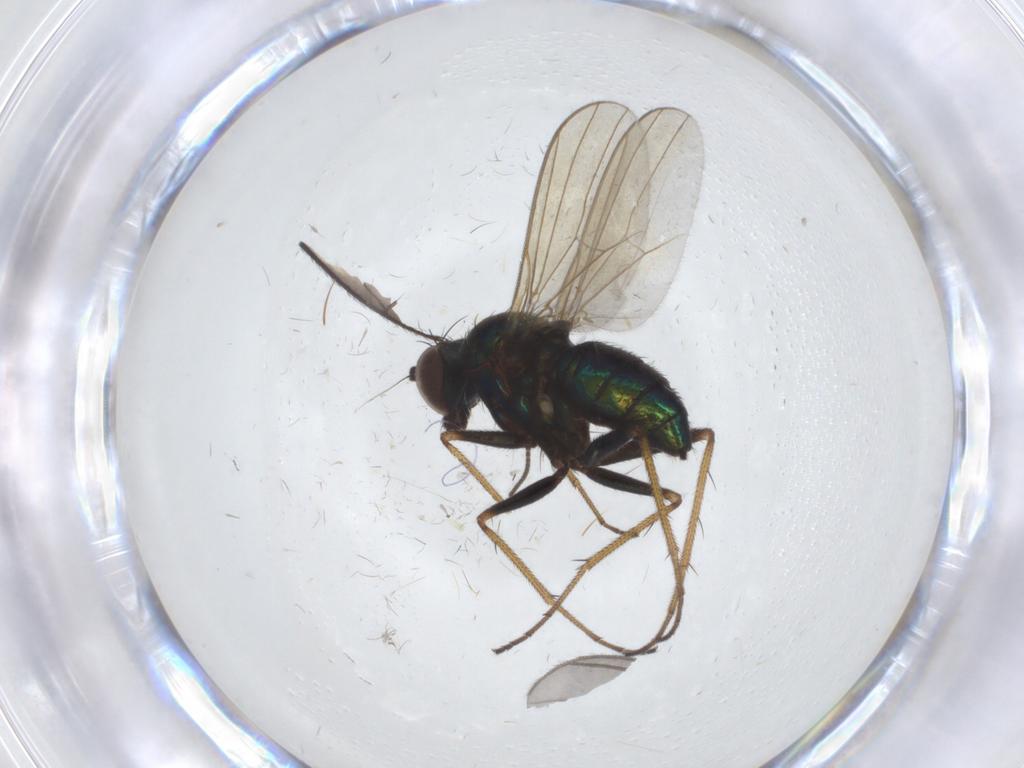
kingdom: Animalia
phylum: Arthropoda
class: Insecta
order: Diptera
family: Dolichopodidae
